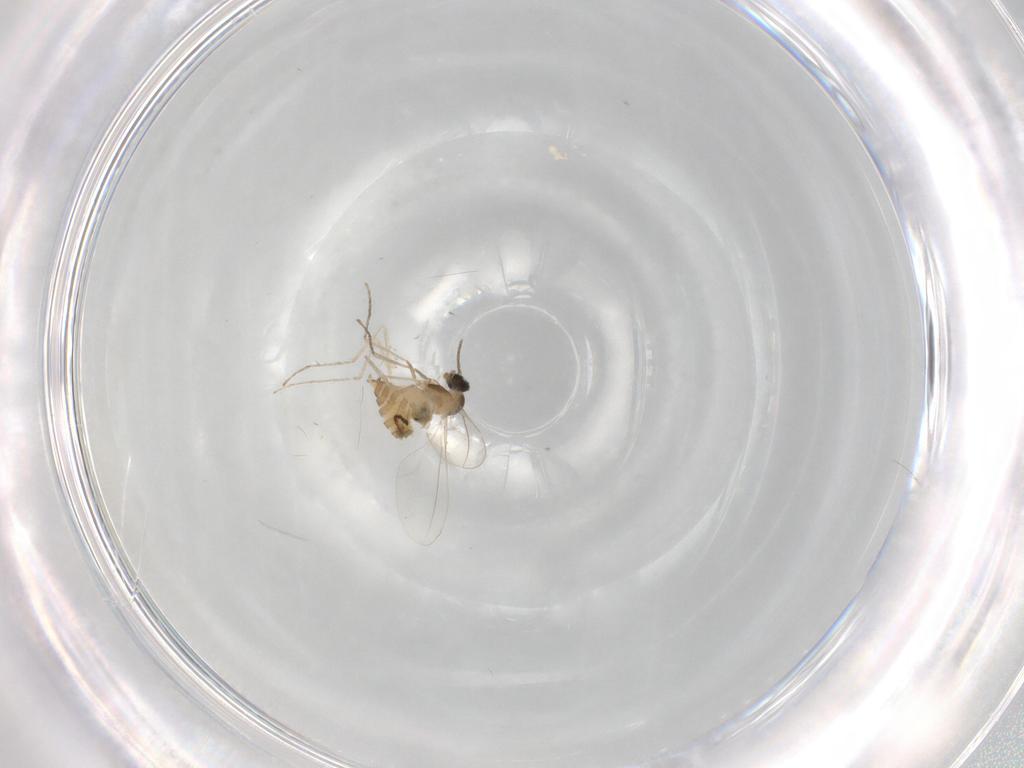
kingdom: Animalia
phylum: Arthropoda
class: Insecta
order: Diptera
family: Cecidomyiidae
